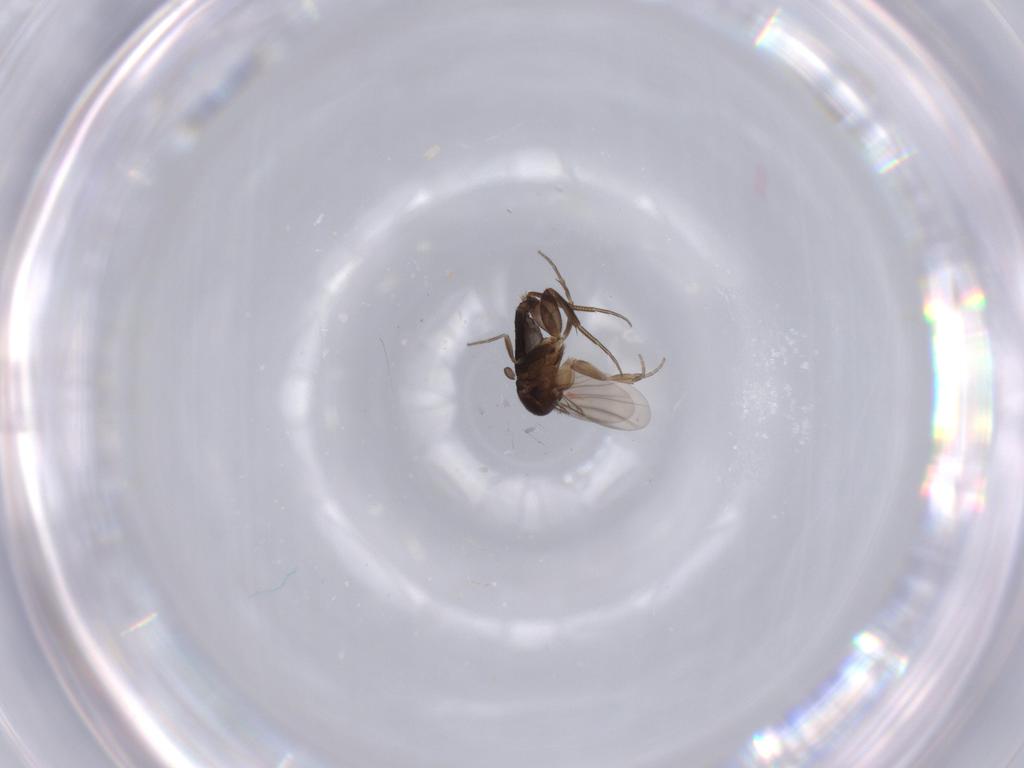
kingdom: Animalia
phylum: Arthropoda
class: Insecta
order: Diptera
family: Phoridae
